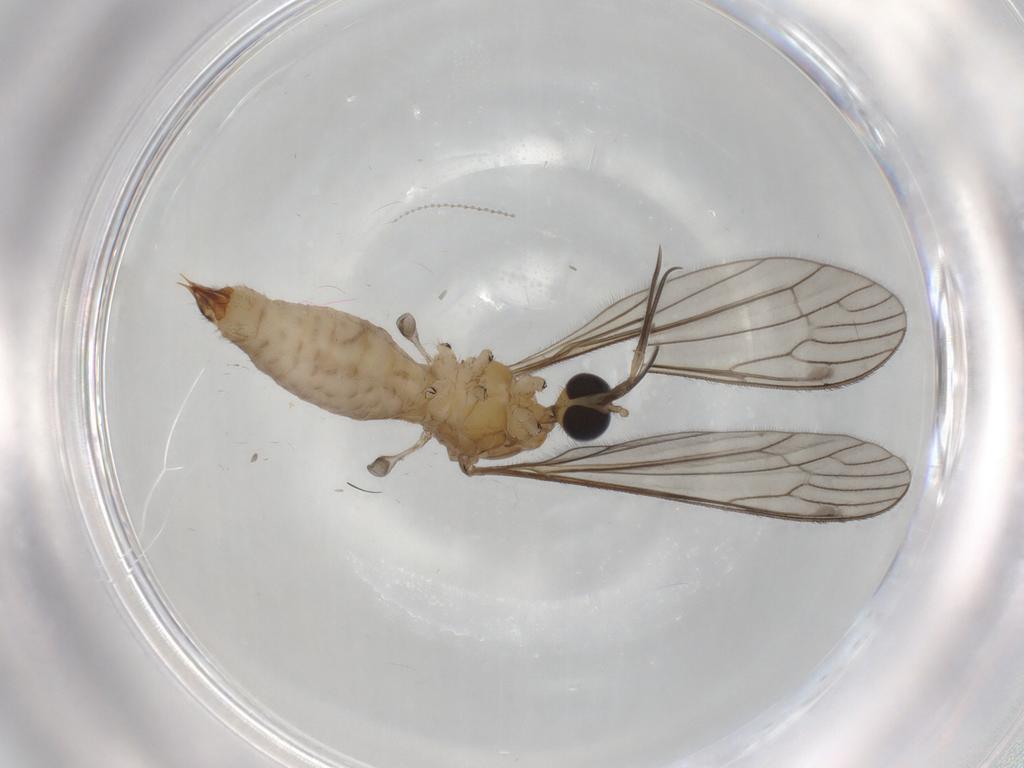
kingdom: Animalia
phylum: Arthropoda
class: Insecta
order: Diptera
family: Limoniidae
